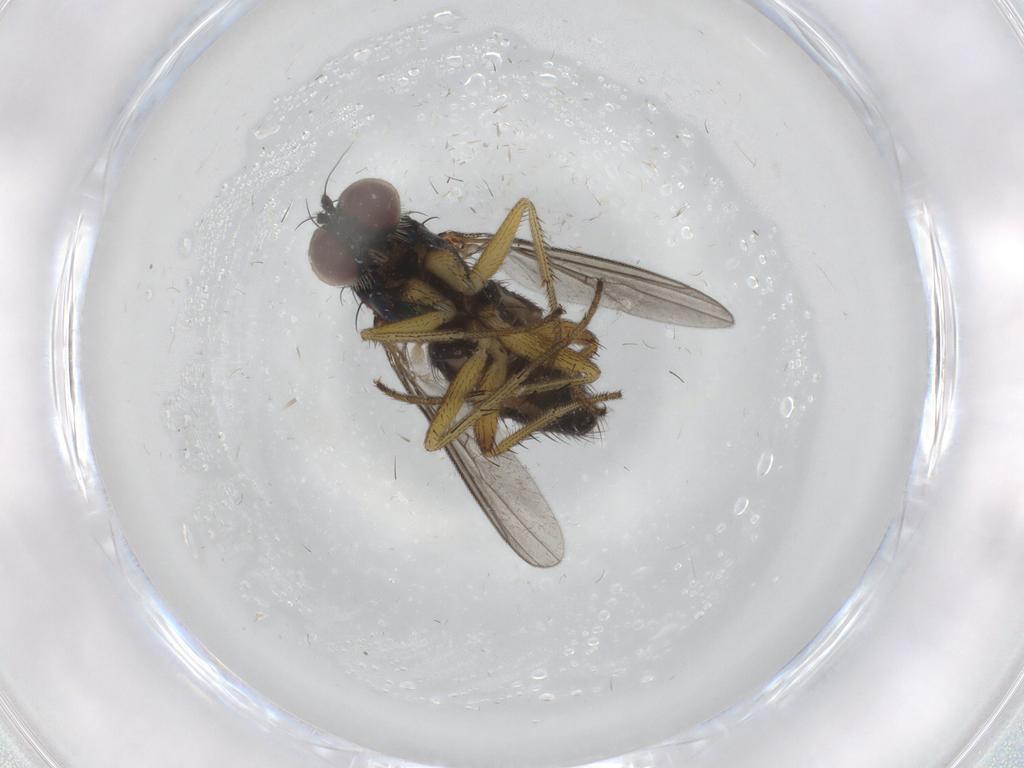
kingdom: Animalia
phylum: Arthropoda
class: Insecta
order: Diptera
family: Dolichopodidae
